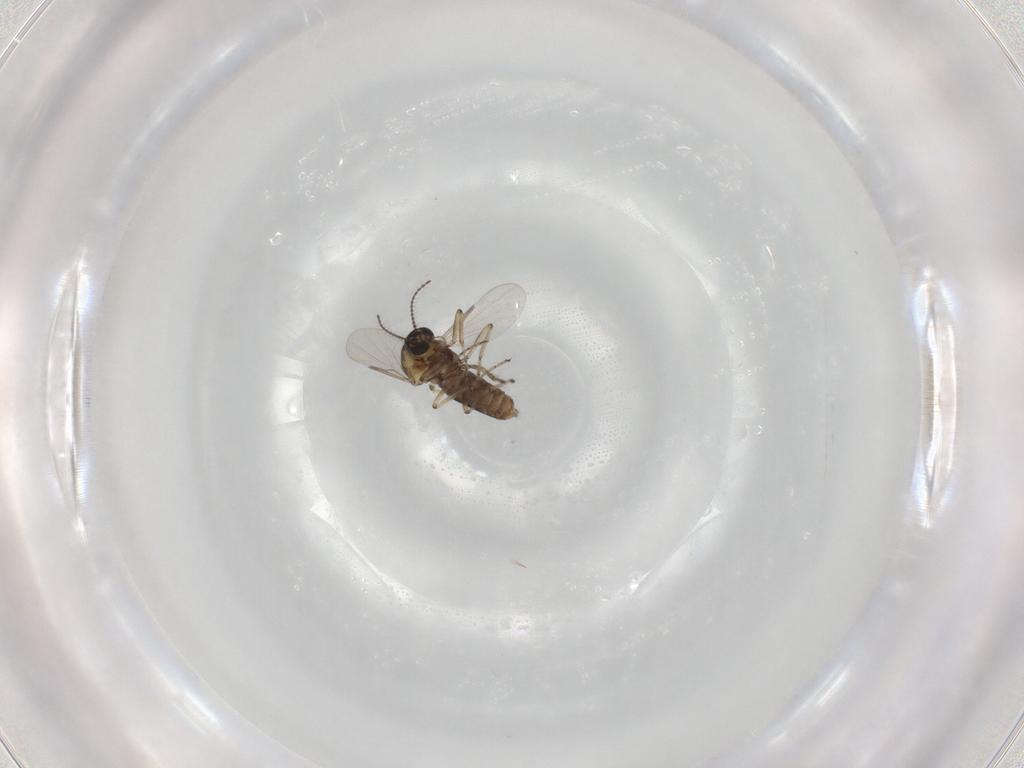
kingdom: Animalia
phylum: Arthropoda
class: Insecta
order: Diptera
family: Ceratopogonidae
